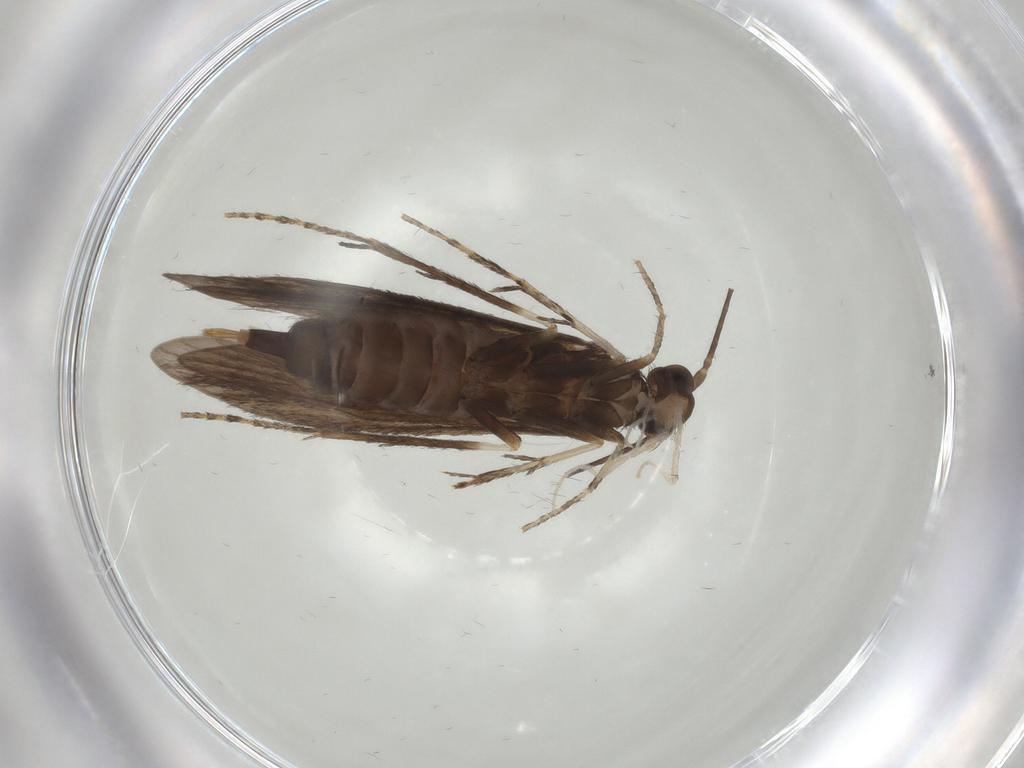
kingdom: Animalia
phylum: Arthropoda
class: Insecta
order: Trichoptera
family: Xiphocentronidae
